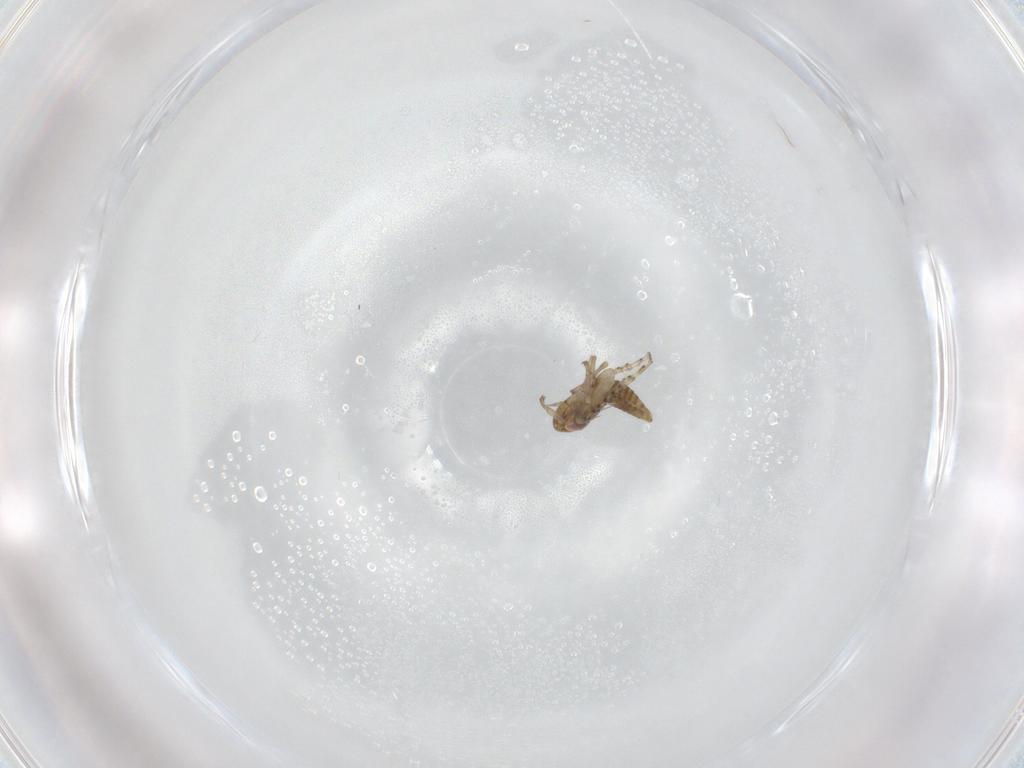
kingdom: Animalia
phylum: Arthropoda
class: Insecta
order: Hemiptera
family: Cicadellidae
